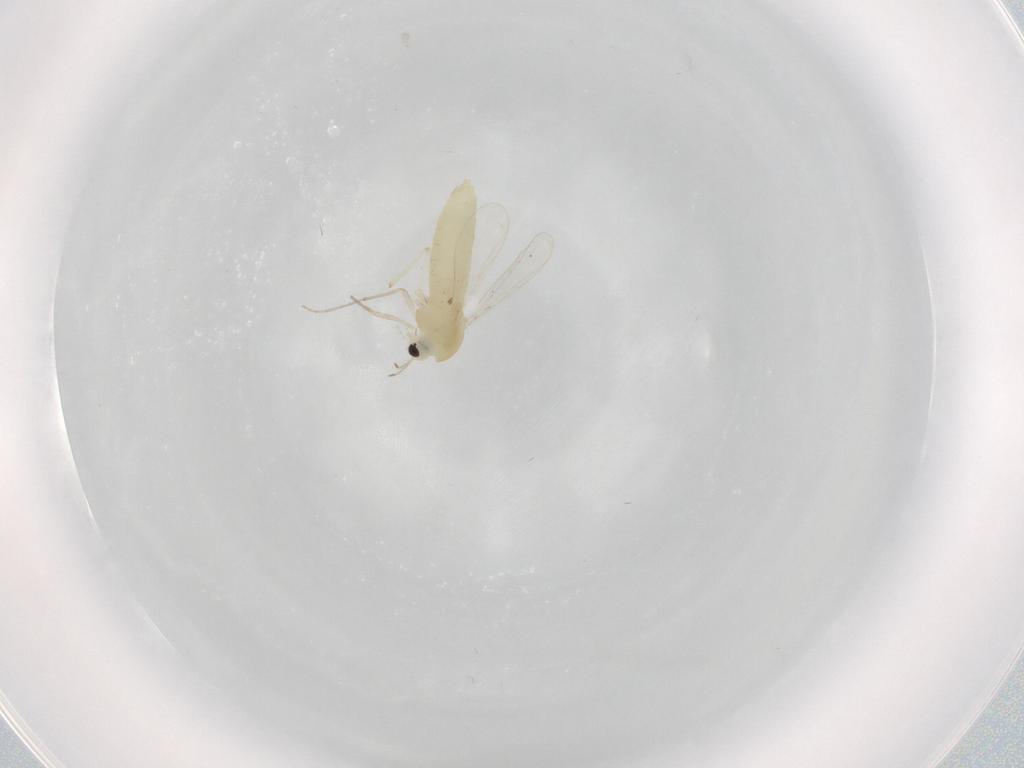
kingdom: Animalia
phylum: Arthropoda
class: Insecta
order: Diptera
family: Chironomidae
